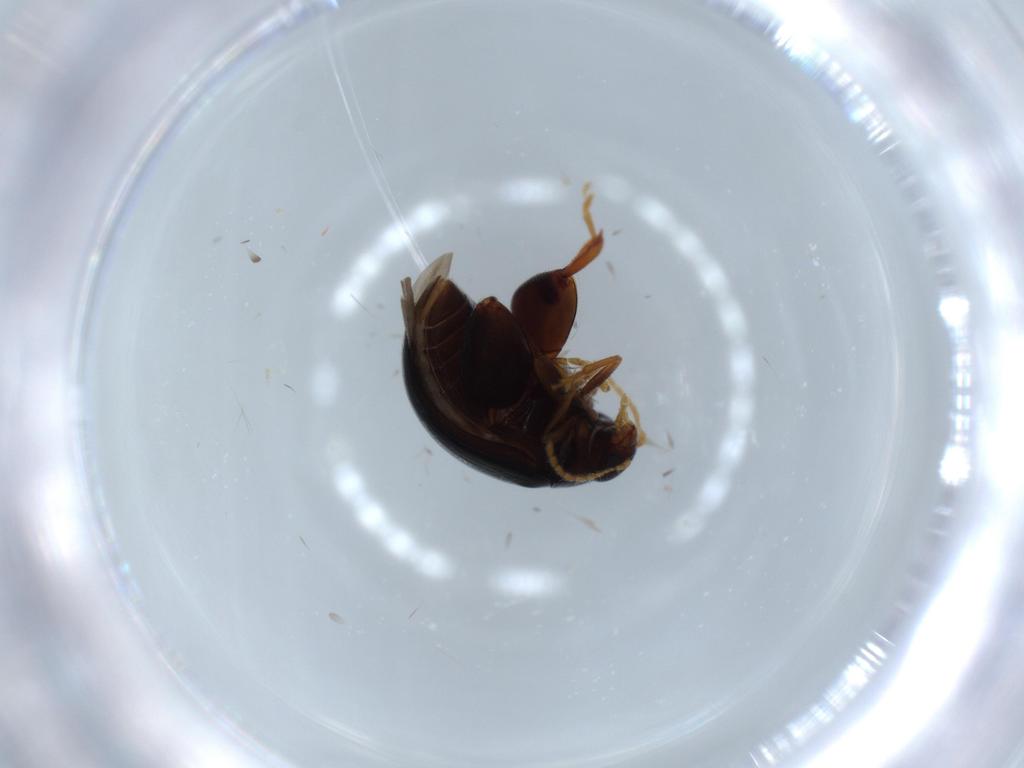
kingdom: Animalia
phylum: Arthropoda
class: Insecta
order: Coleoptera
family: Chrysomelidae
